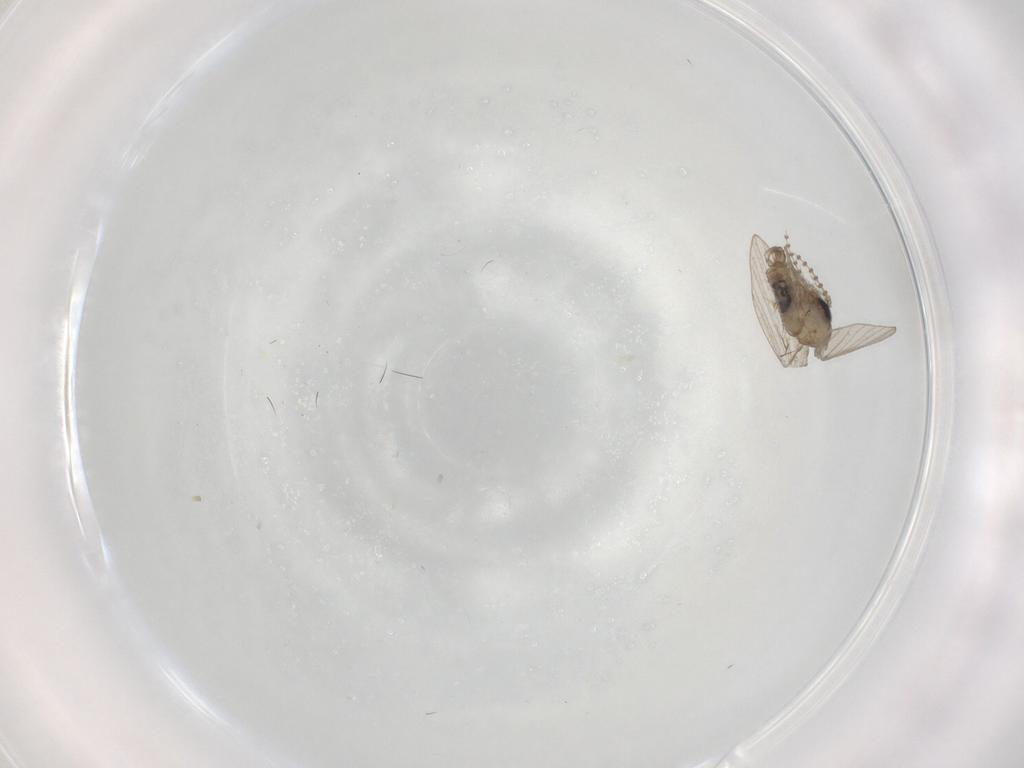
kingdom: Animalia
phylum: Arthropoda
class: Insecta
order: Diptera
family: Psychodidae
